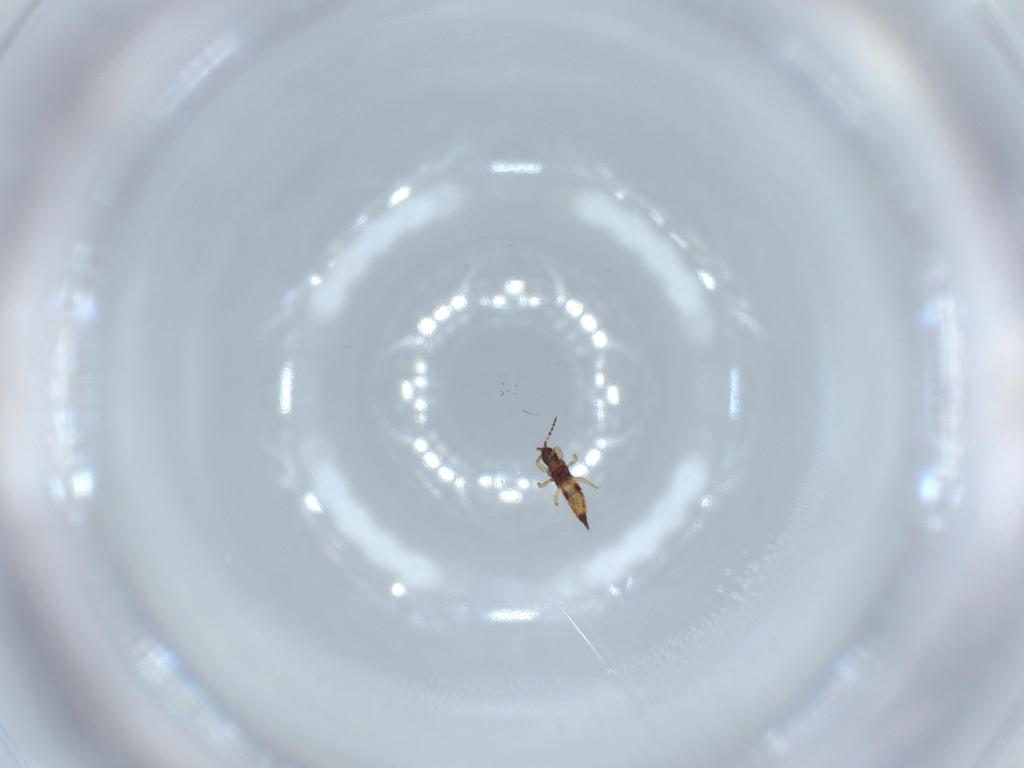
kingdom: Animalia
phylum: Arthropoda
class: Insecta
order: Thysanoptera
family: Phlaeothripidae
